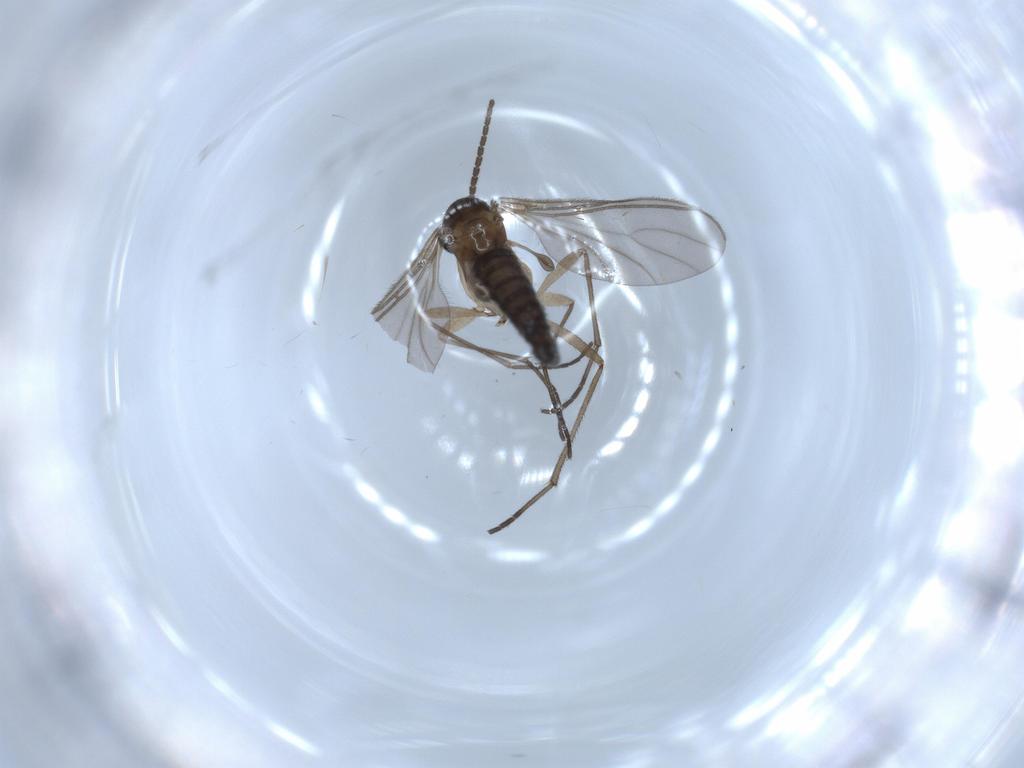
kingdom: Animalia
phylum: Arthropoda
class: Insecta
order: Diptera
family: Sciaridae
